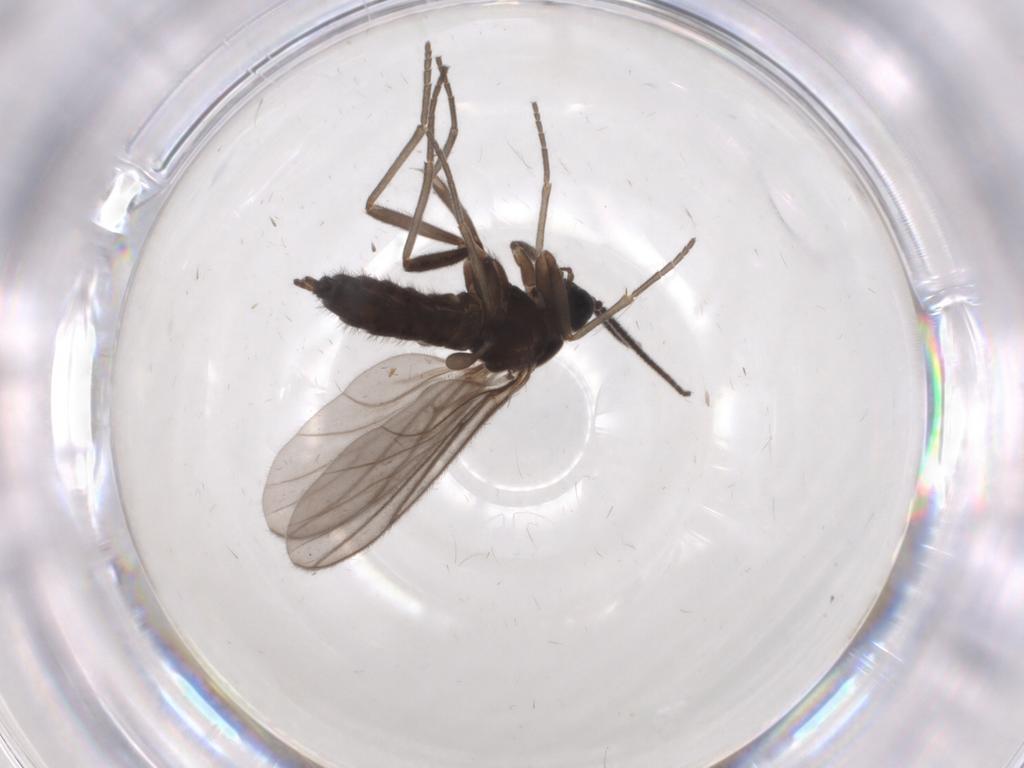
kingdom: Animalia
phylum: Arthropoda
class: Insecta
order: Diptera
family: Sciaridae
